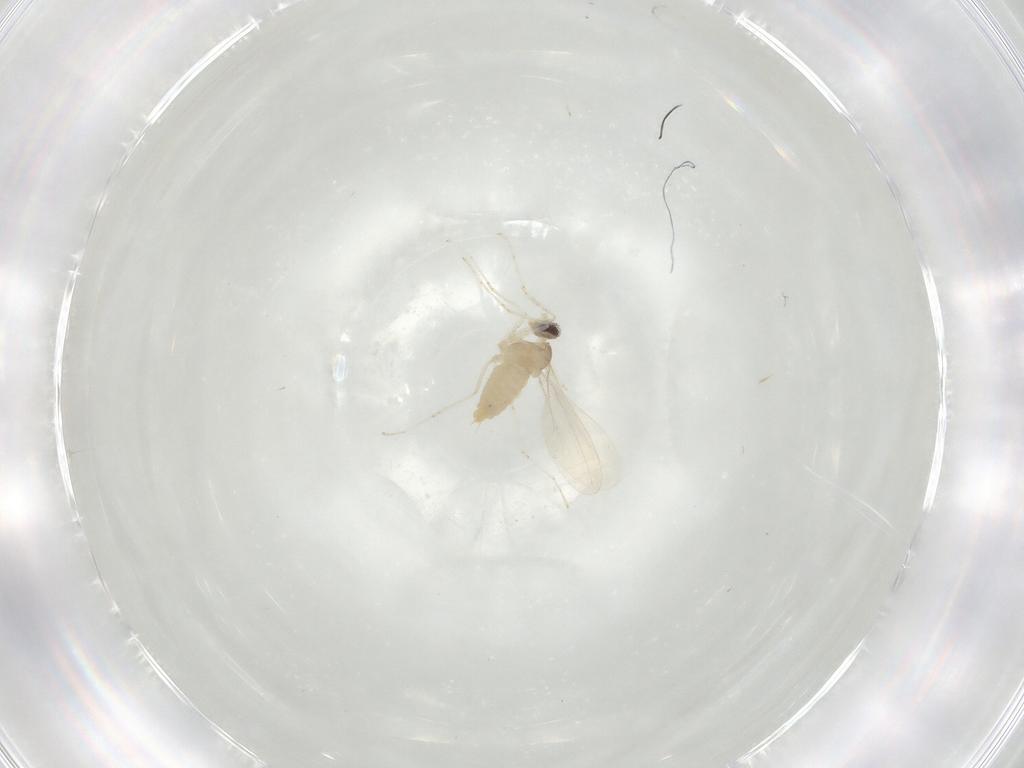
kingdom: Animalia
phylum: Arthropoda
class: Insecta
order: Diptera
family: Cecidomyiidae
